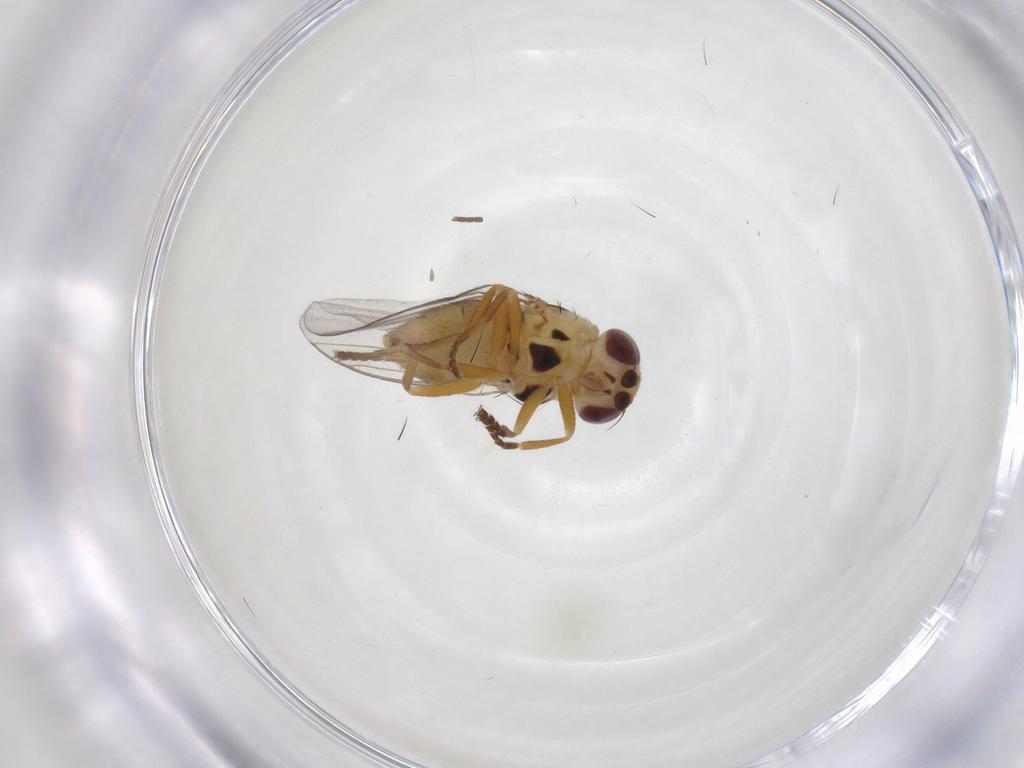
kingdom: Animalia
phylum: Arthropoda
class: Insecta
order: Diptera
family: Chloropidae
